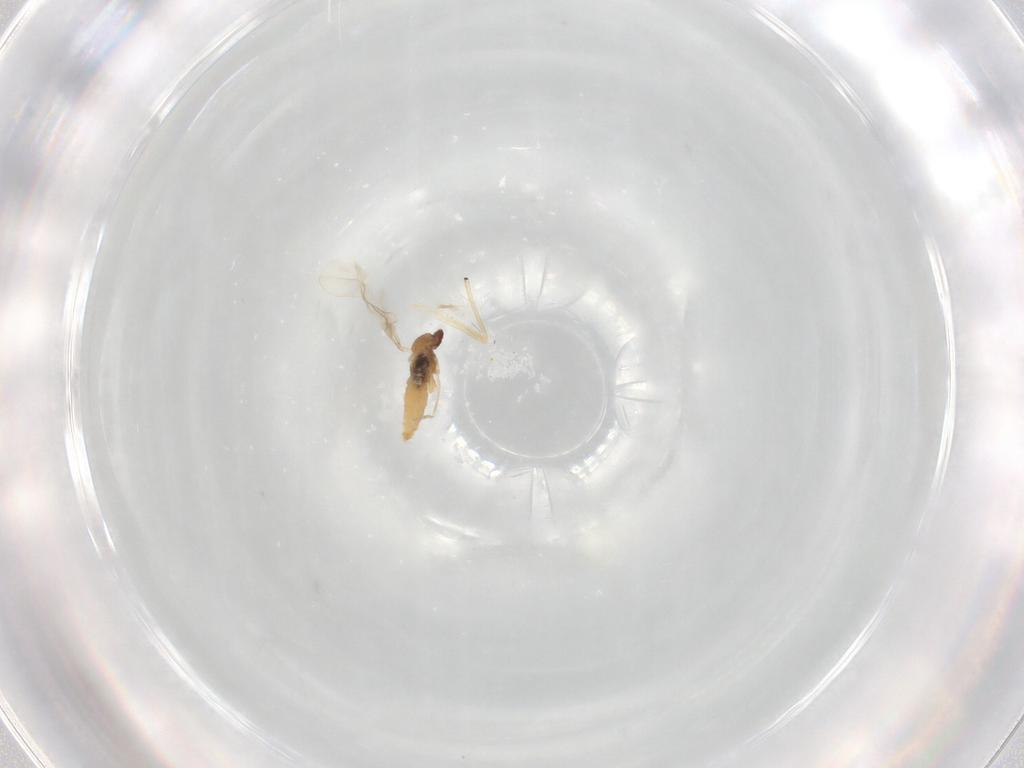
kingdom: Animalia
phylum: Arthropoda
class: Insecta
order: Diptera
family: Cecidomyiidae
